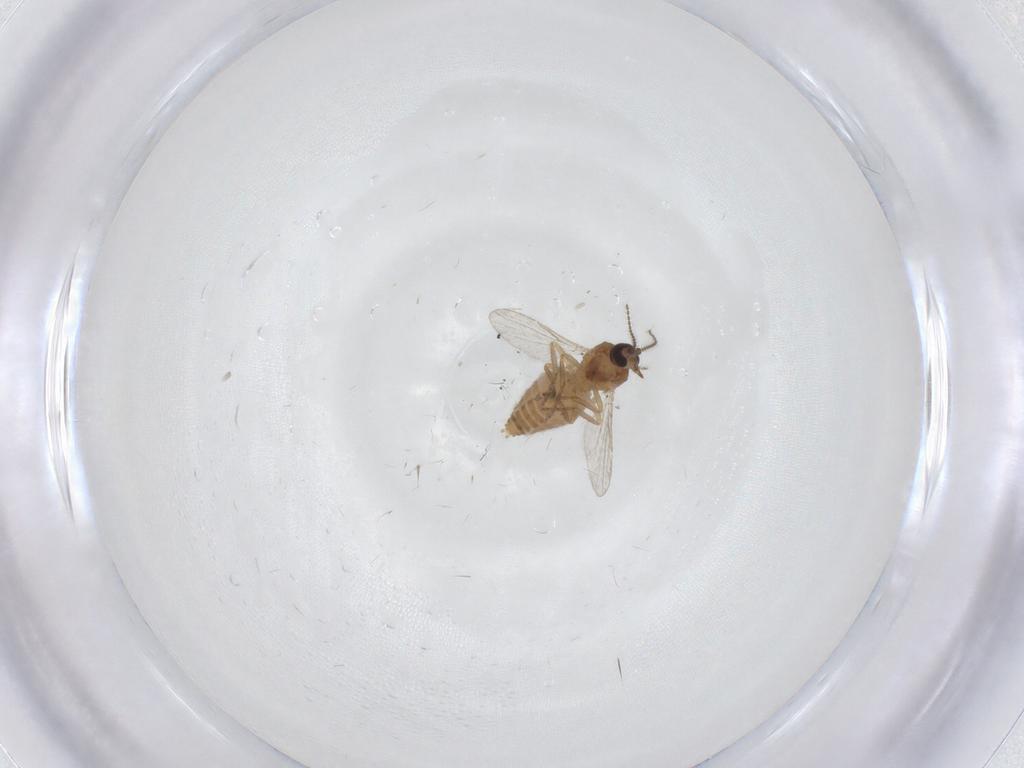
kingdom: Animalia
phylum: Arthropoda
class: Insecta
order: Diptera
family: Ceratopogonidae
